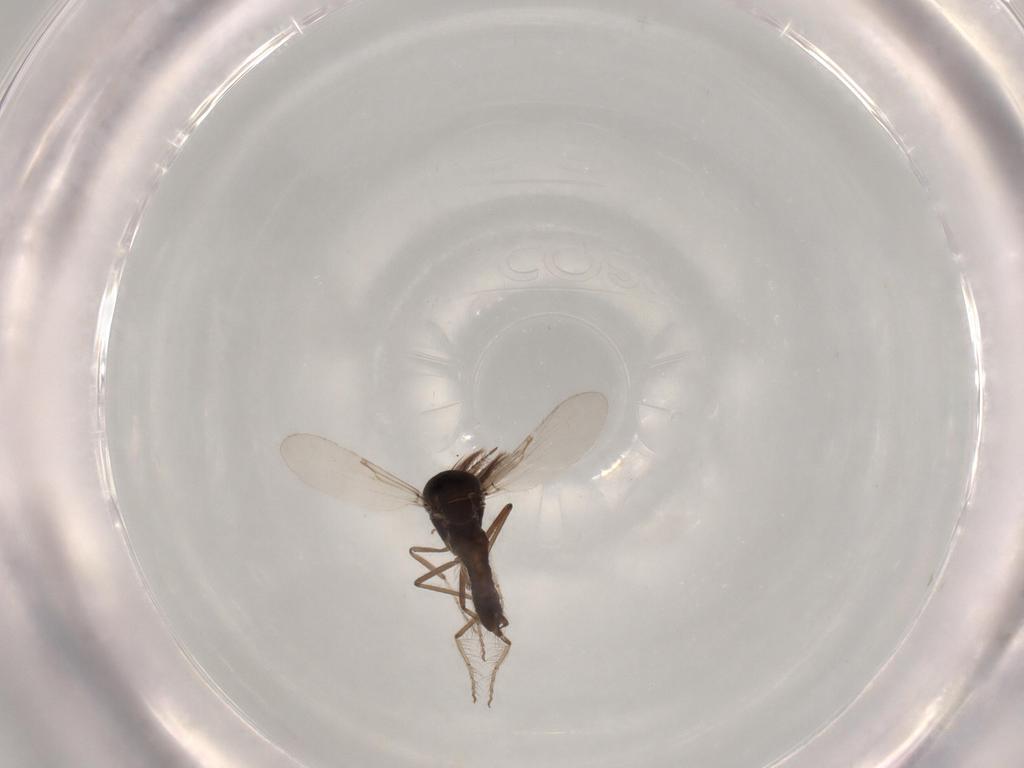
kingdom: Animalia
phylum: Arthropoda
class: Insecta
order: Diptera
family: Chironomidae
